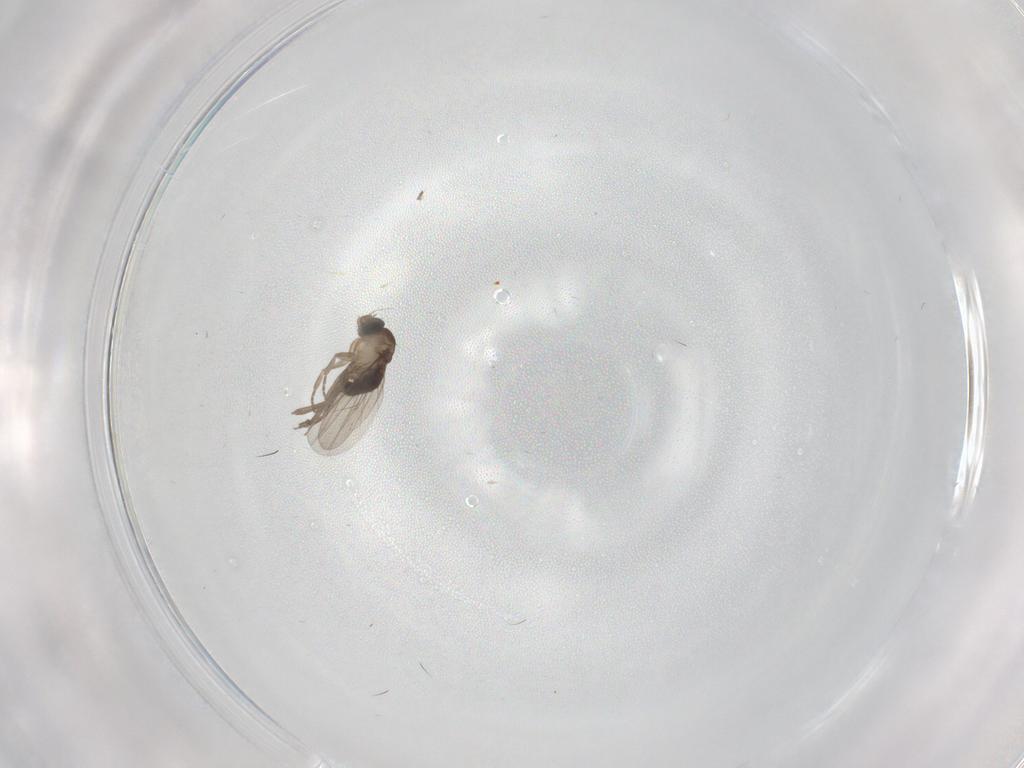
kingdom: Animalia
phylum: Arthropoda
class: Insecta
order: Diptera
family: Phoridae
